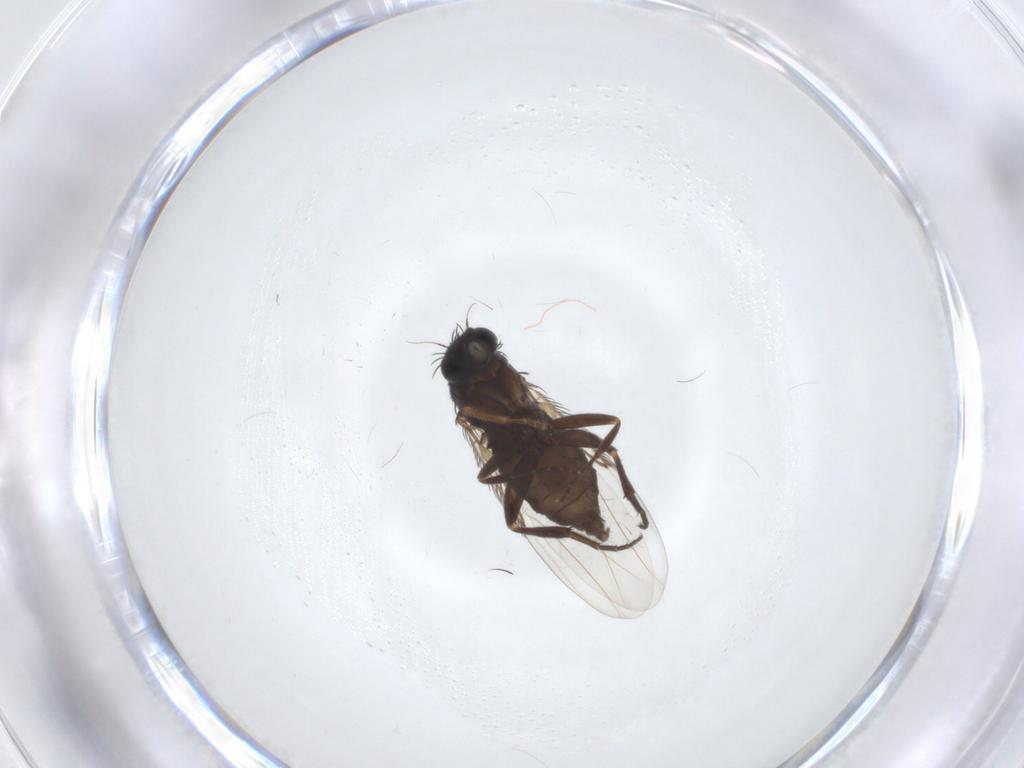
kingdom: Animalia
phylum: Arthropoda
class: Insecta
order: Diptera
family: Phoridae
